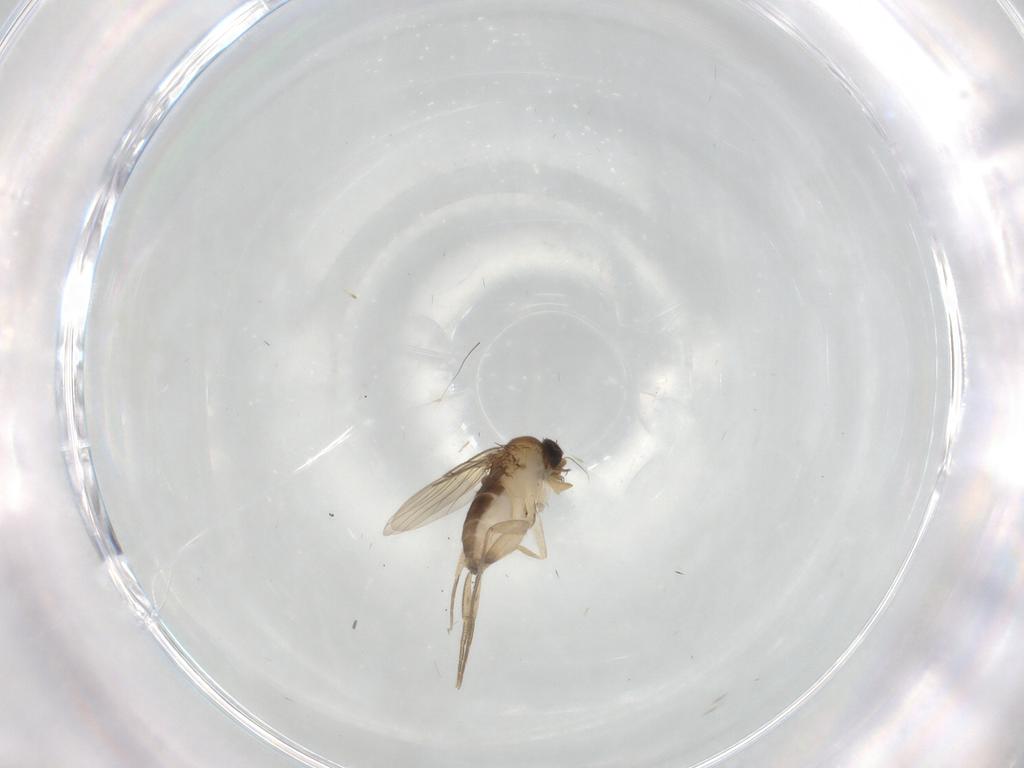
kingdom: Animalia
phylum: Arthropoda
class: Insecta
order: Diptera
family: Phoridae
